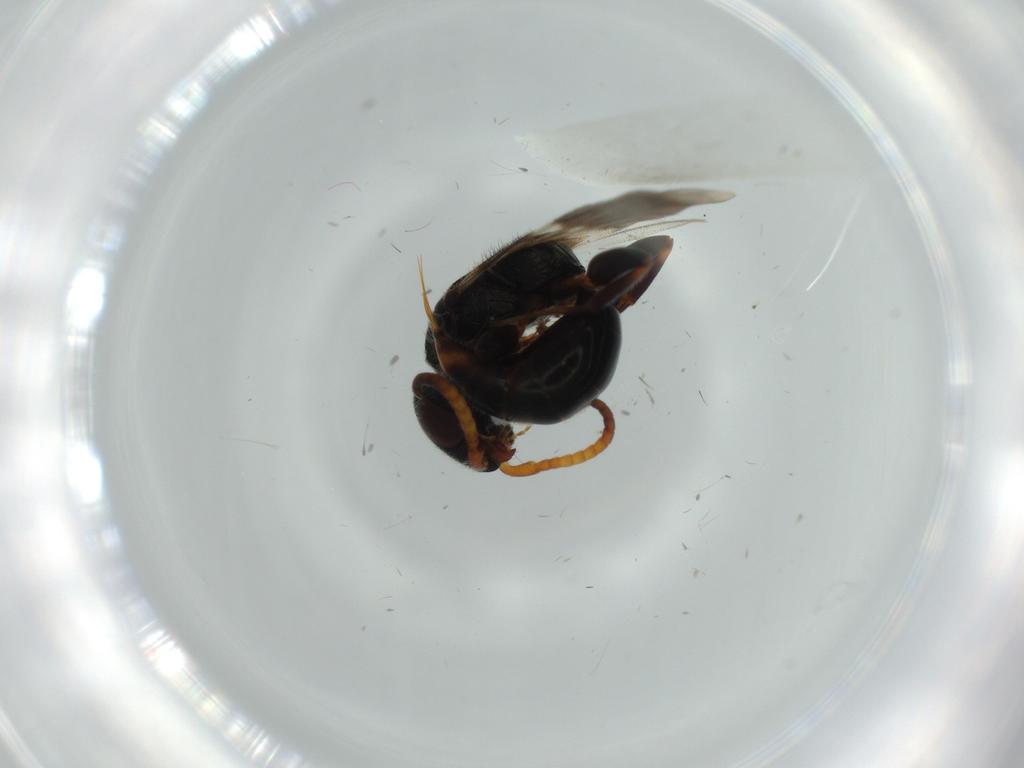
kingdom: Animalia
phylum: Arthropoda
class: Insecta
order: Hymenoptera
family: Bethylidae
